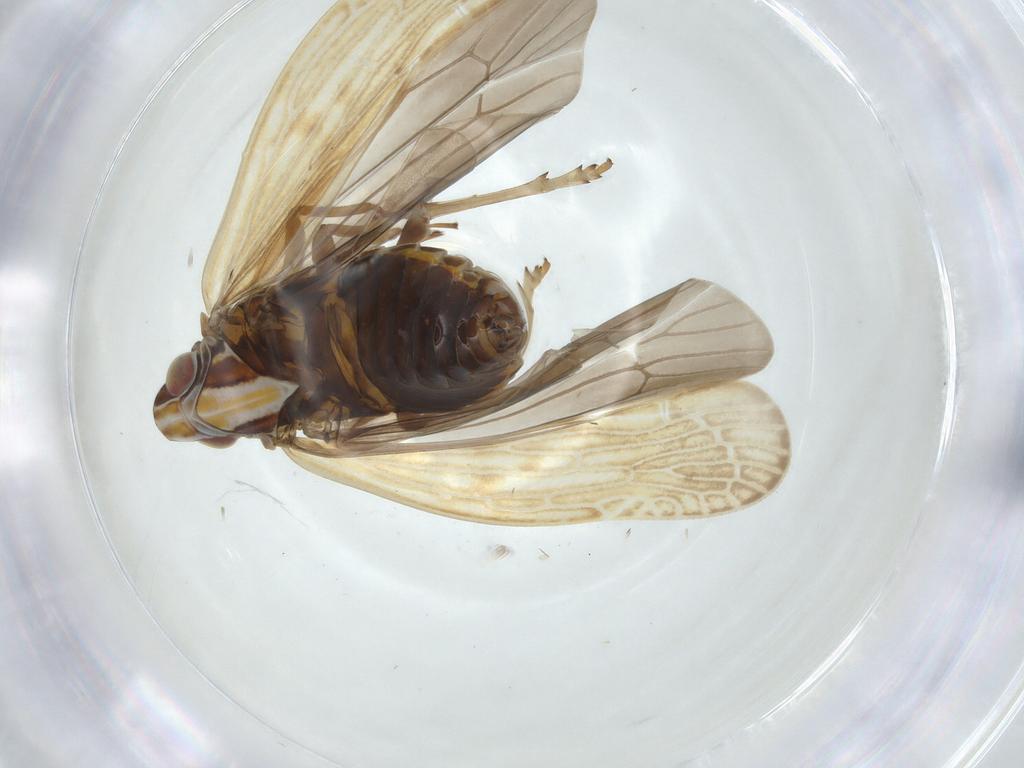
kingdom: Animalia
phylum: Arthropoda
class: Insecta
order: Hemiptera
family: Achilidae
